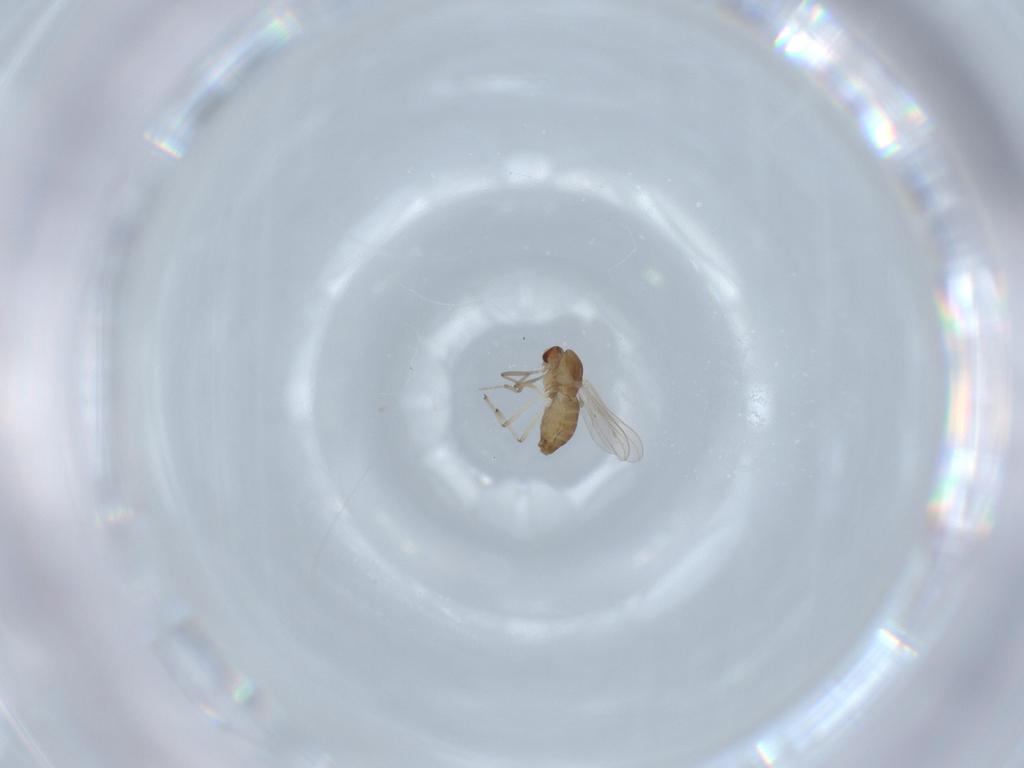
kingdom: Animalia
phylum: Arthropoda
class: Insecta
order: Diptera
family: Chironomidae
